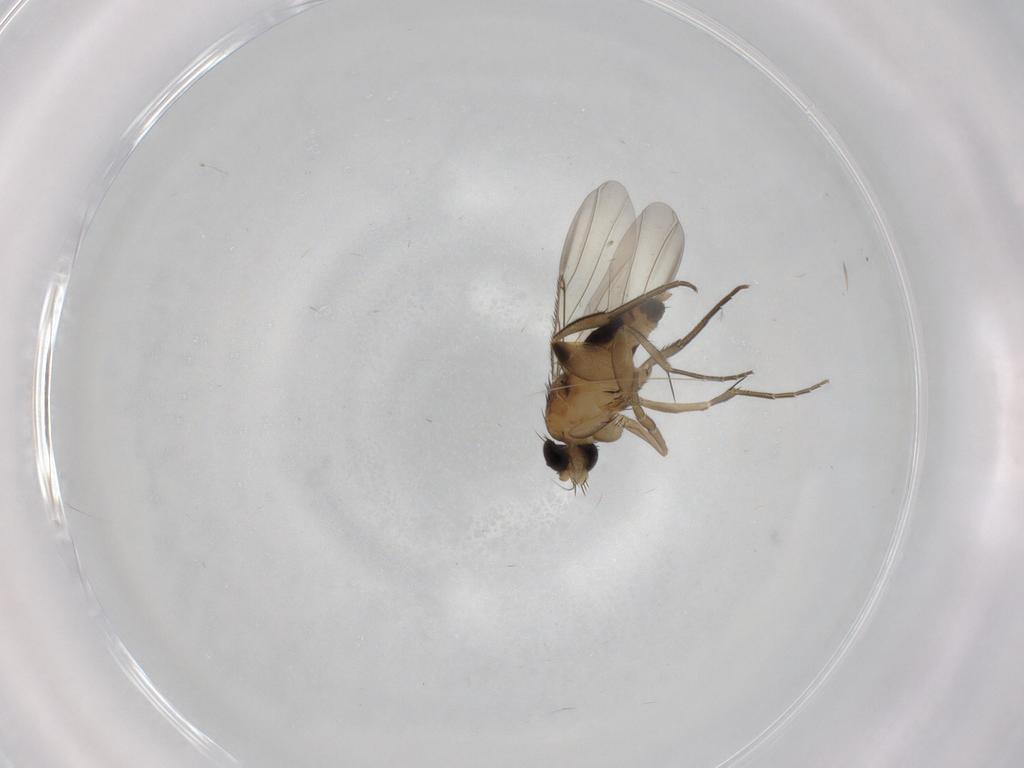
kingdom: Animalia
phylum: Arthropoda
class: Insecta
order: Diptera
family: Phoridae
